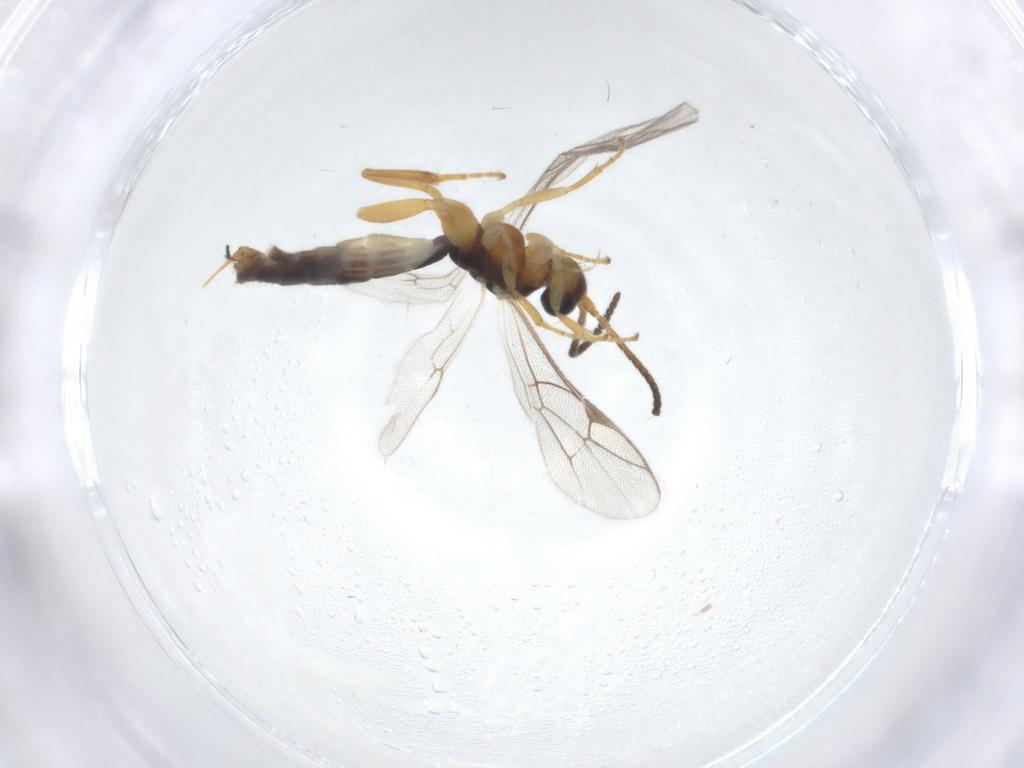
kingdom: Animalia
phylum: Arthropoda
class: Insecta
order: Hymenoptera
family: Ichneumonidae
